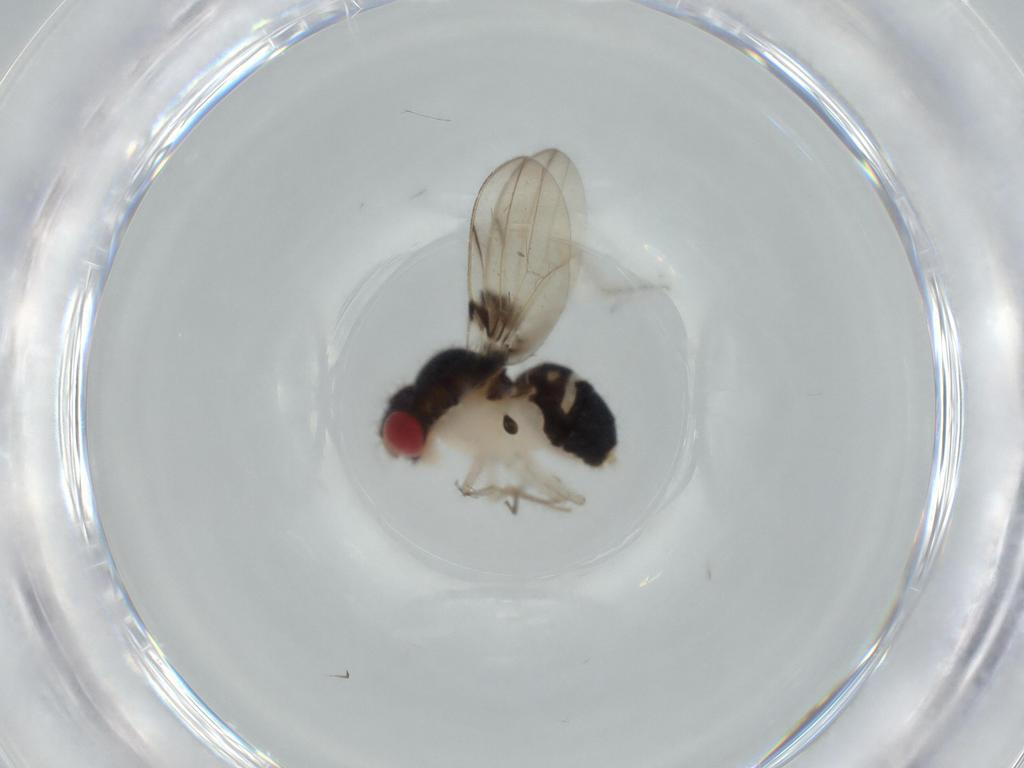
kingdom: Animalia
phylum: Arthropoda
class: Insecta
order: Diptera
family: Drosophilidae
